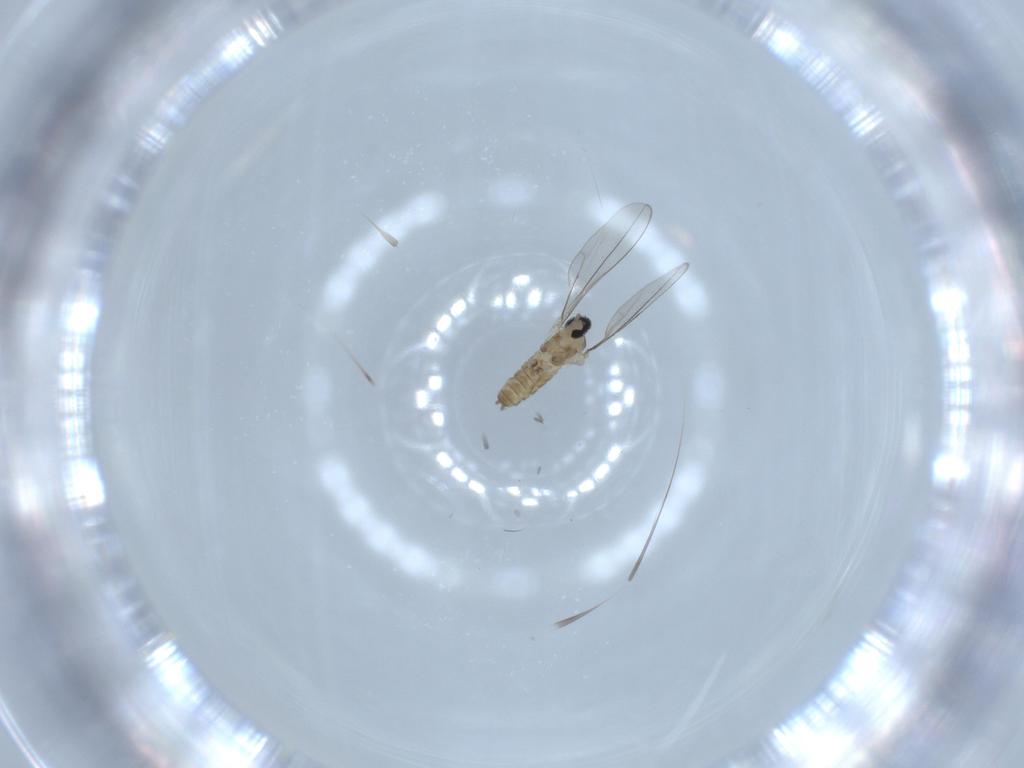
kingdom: Animalia
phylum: Arthropoda
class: Insecta
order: Diptera
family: Cecidomyiidae
